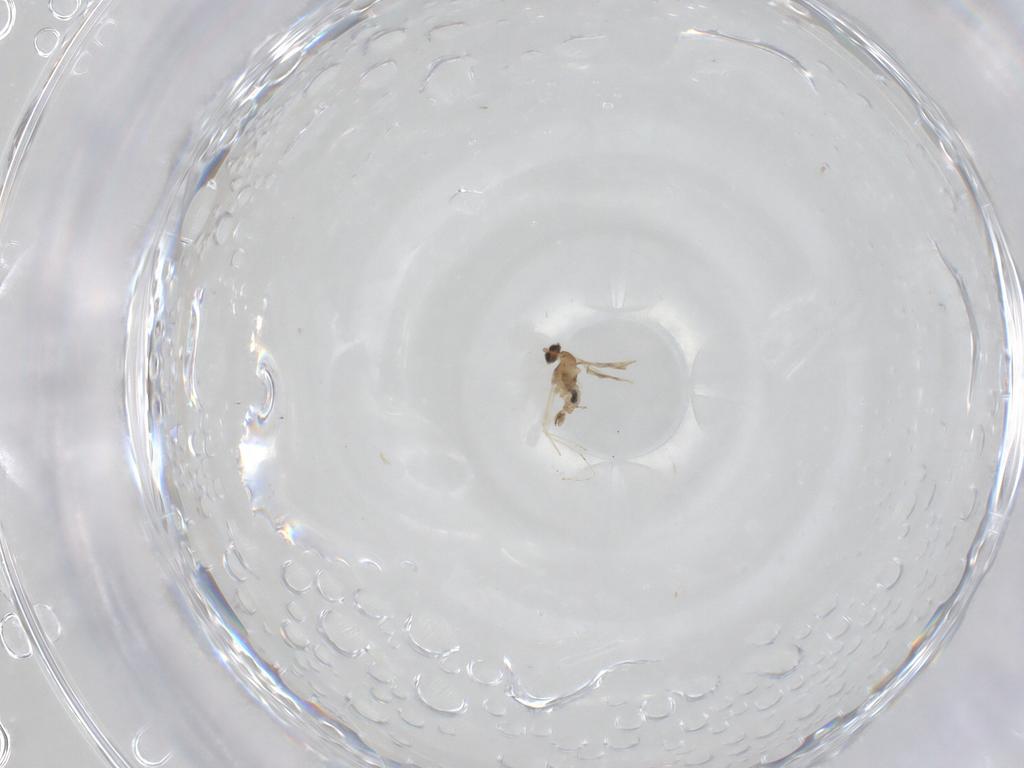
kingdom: Animalia
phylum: Arthropoda
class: Insecta
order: Diptera
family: Cecidomyiidae
